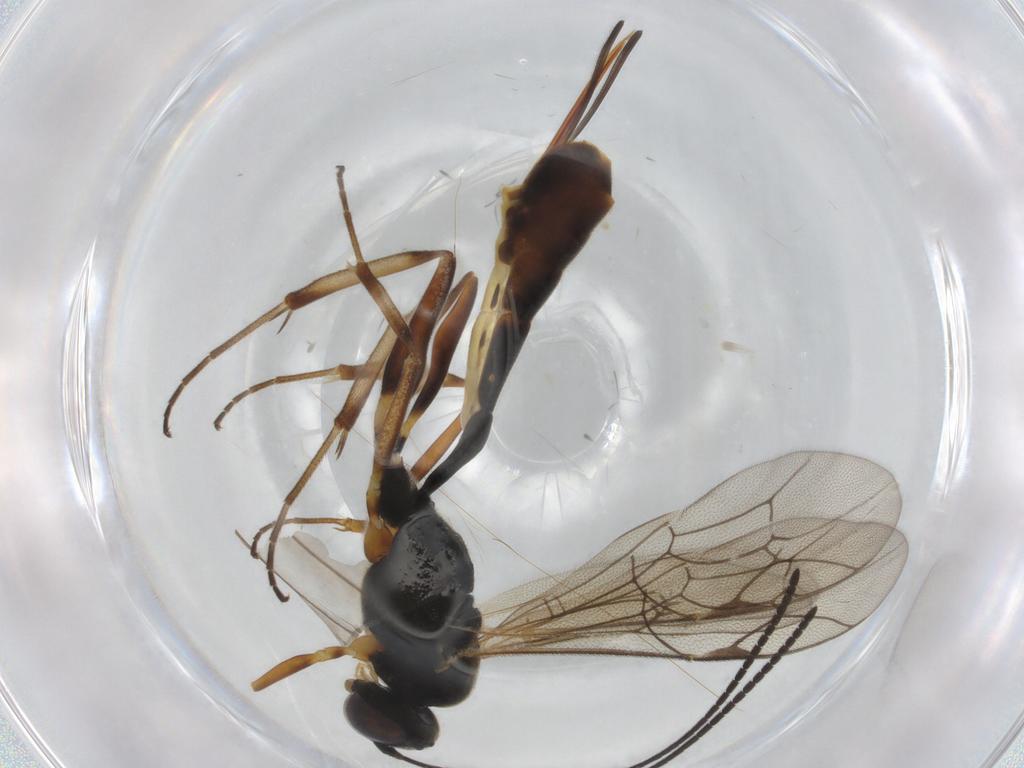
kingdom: Animalia
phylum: Arthropoda
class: Insecta
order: Hymenoptera
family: Ichneumonidae
